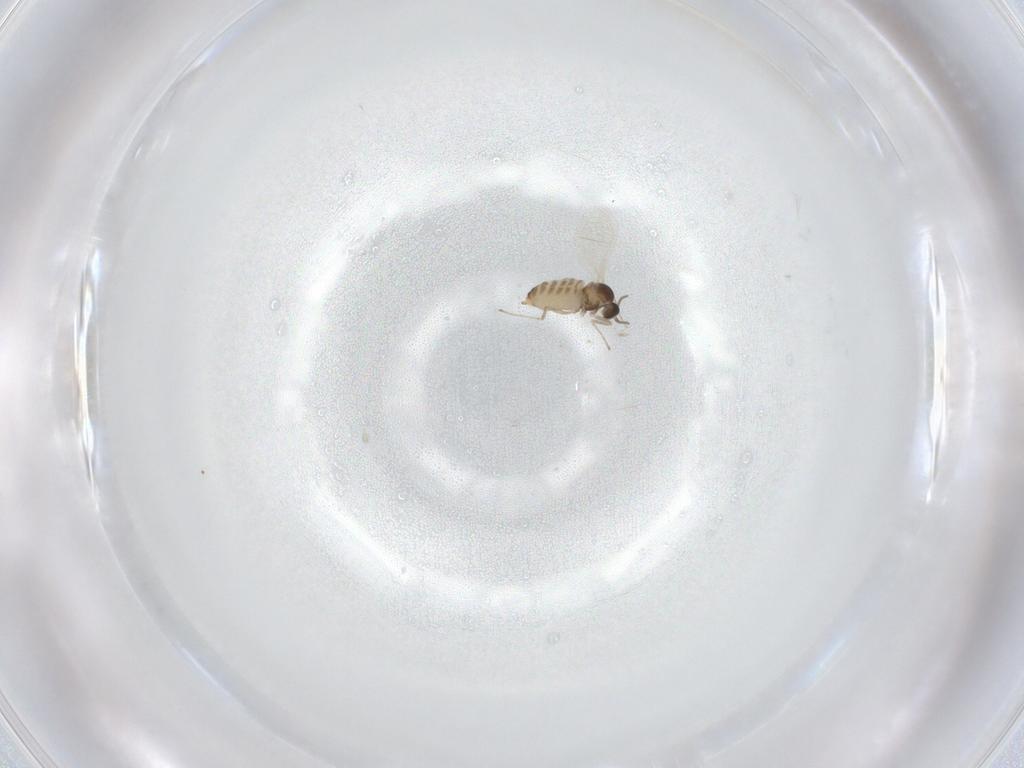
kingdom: Animalia
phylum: Arthropoda
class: Insecta
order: Diptera
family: Cecidomyiidae
